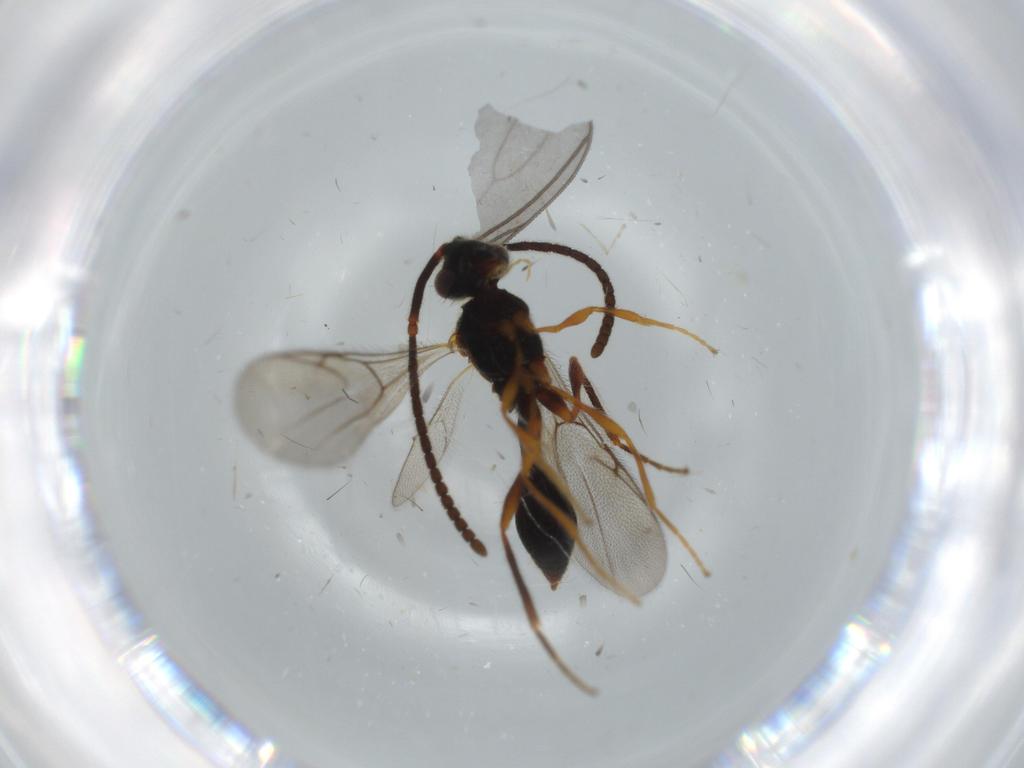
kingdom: Animalia
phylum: Arthropoda
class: Insecta
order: Hymenoptera
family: Diapriidae
